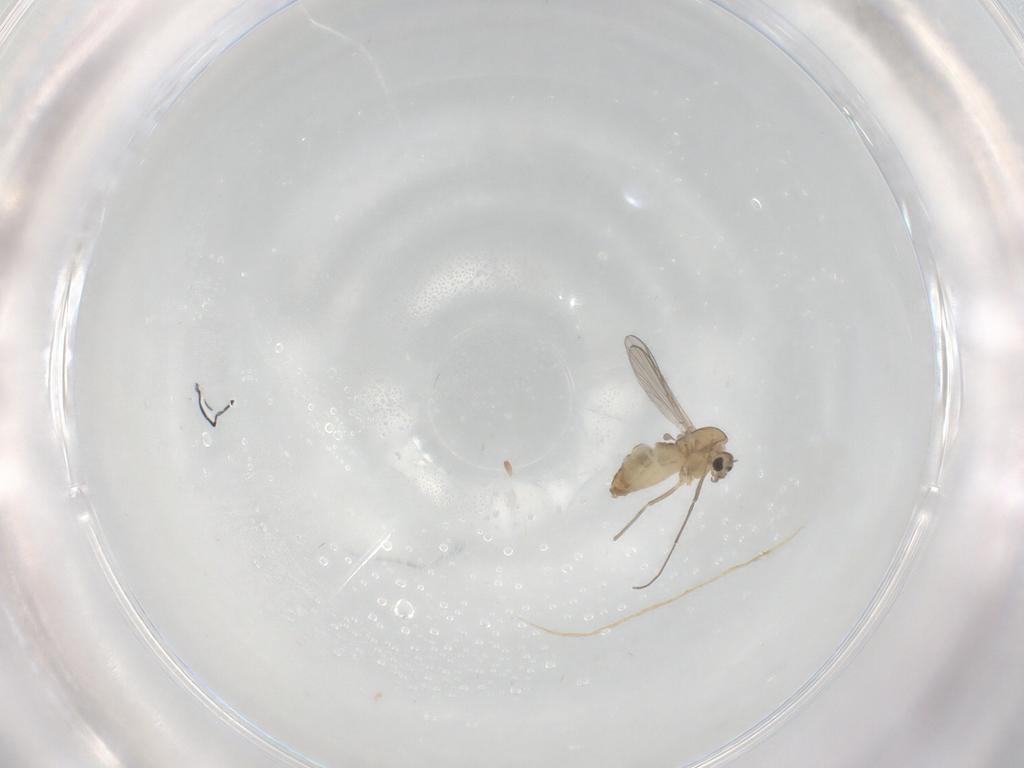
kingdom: Animalia
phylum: Arthropoda
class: Insecta
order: Diptera
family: Chironomidae
